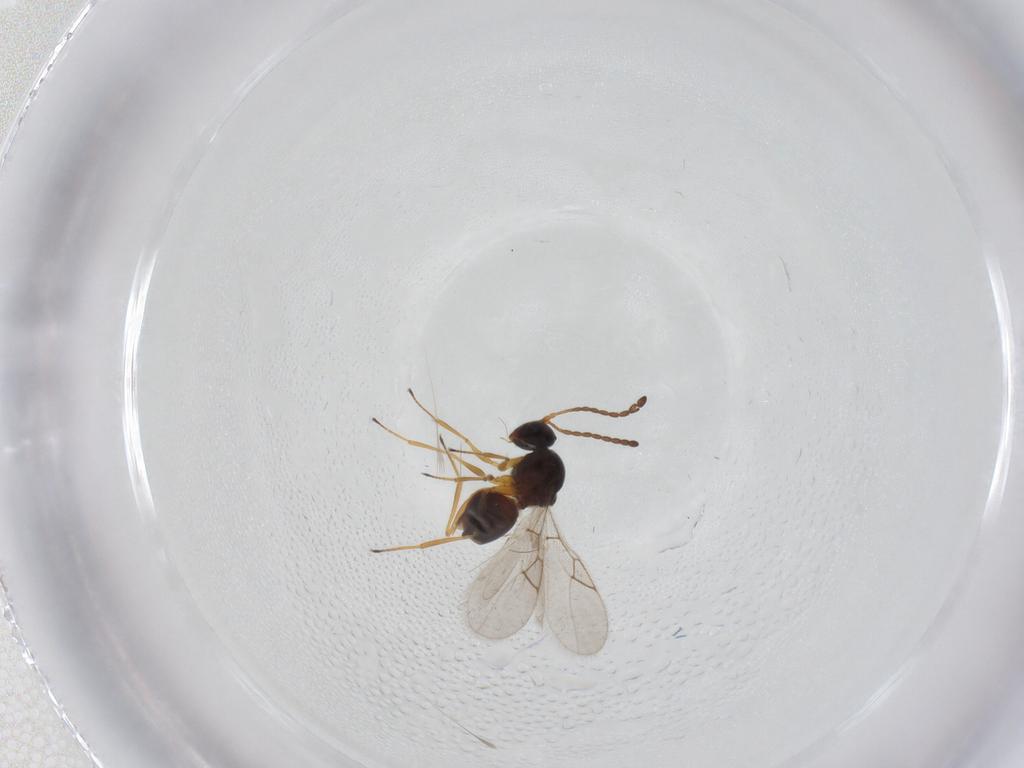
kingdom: Animalia
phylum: Arthropoda
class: Insecta
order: Hymenoptera
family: Figitidae
